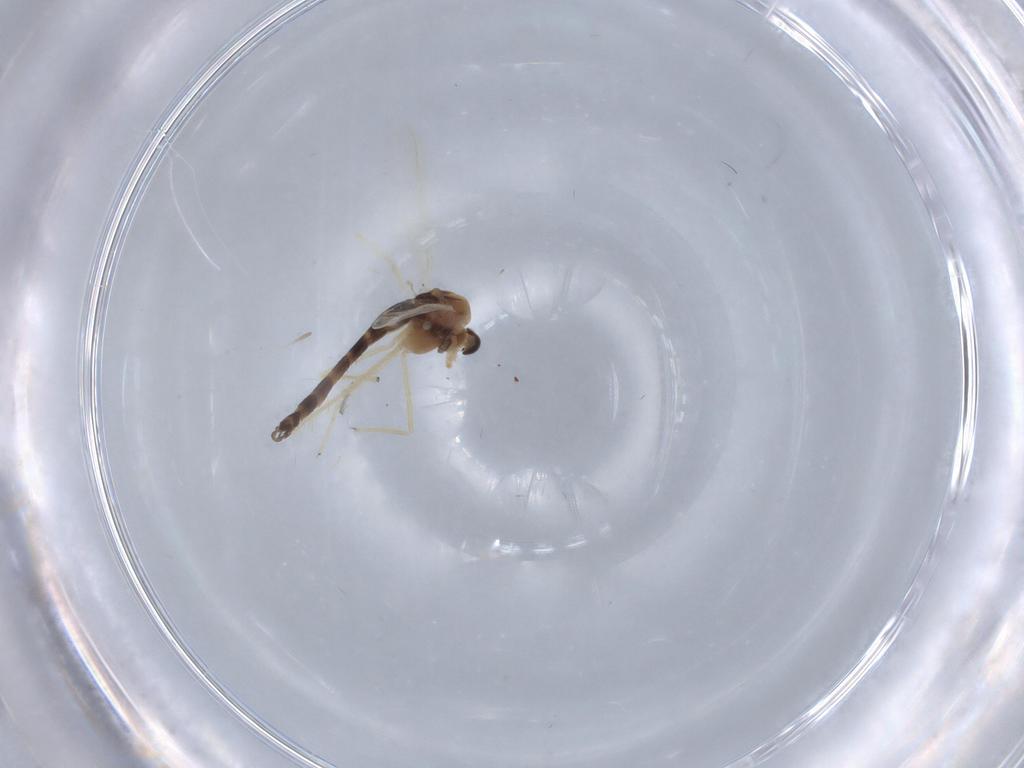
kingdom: Animalia
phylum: Arthropoda
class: Insecta
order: Diptera
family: Chironomidae
